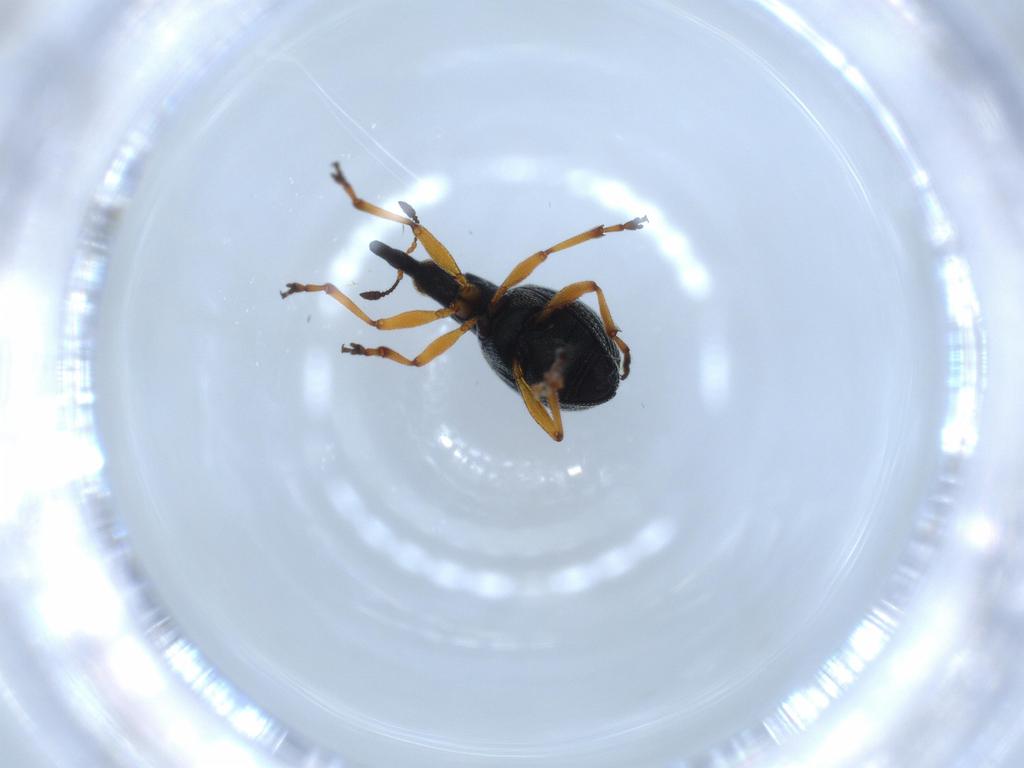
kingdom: Animalia
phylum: Arthropoda
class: Insecta
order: Coleoptera
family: Brentidae
